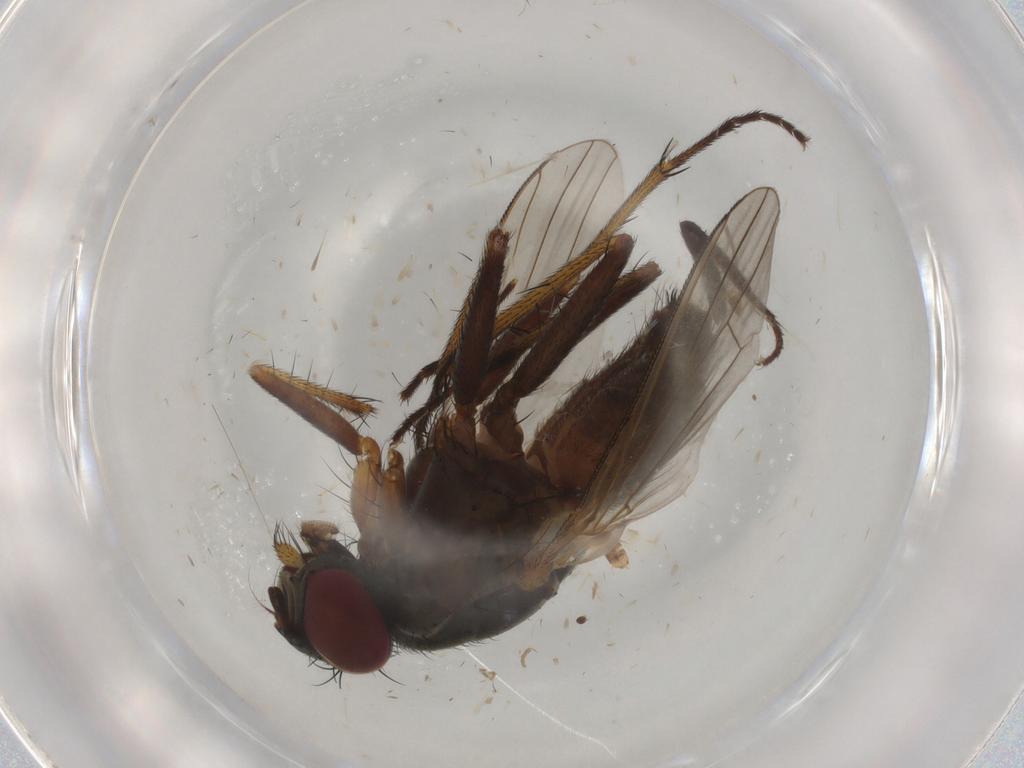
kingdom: Animalia
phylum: Arthropoda
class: Insecta
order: Diptera
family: Muscidae
